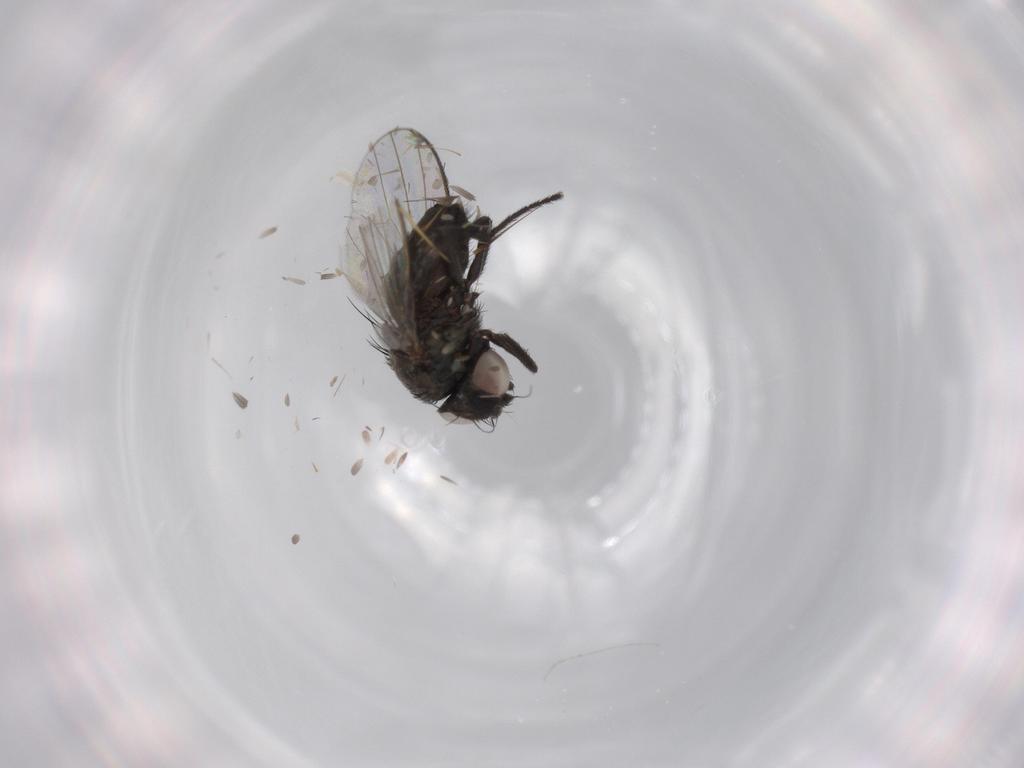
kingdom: Animalia
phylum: Arthropoda
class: Insecta
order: Diptera
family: Milichiidae
